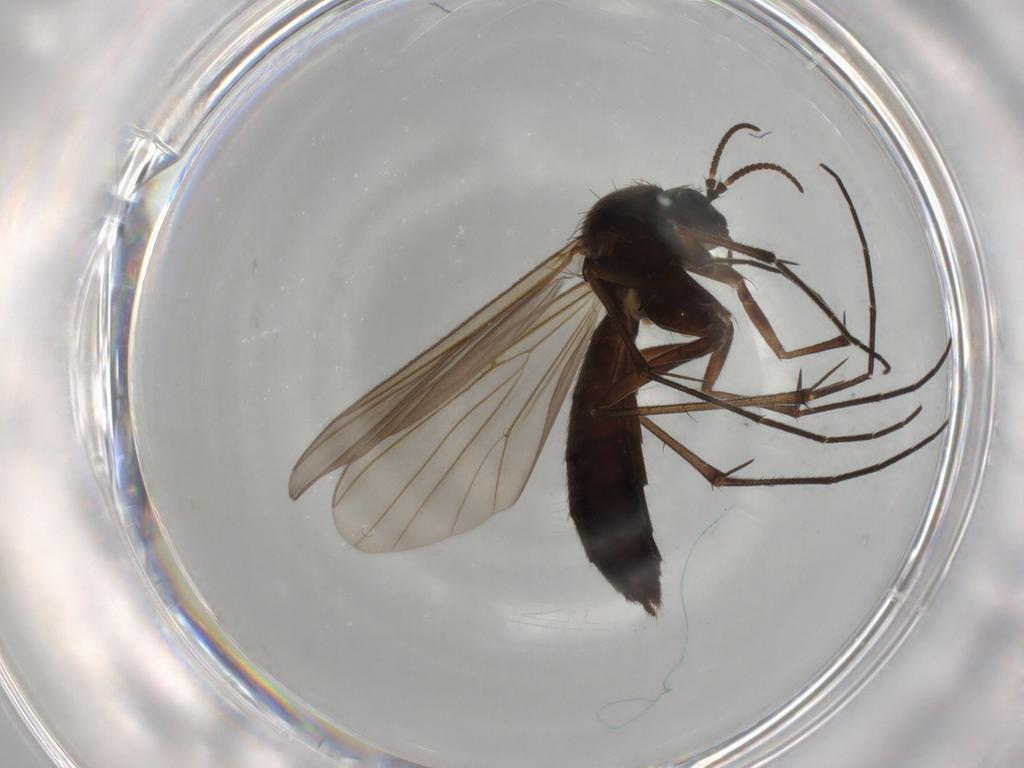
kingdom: Animalia
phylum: Arthropoda
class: Insecta
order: Diptera
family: Mycetophilidae
